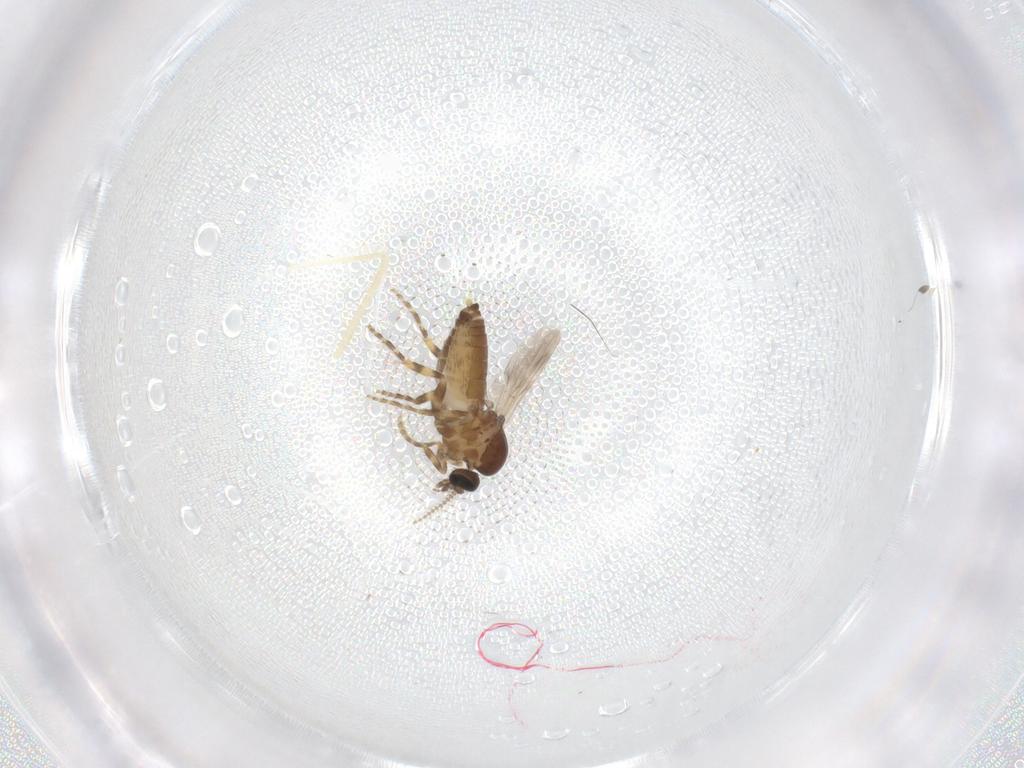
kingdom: Animalia
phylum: Arthropoda
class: Insecta
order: Diptera
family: Ceratopogonidae
